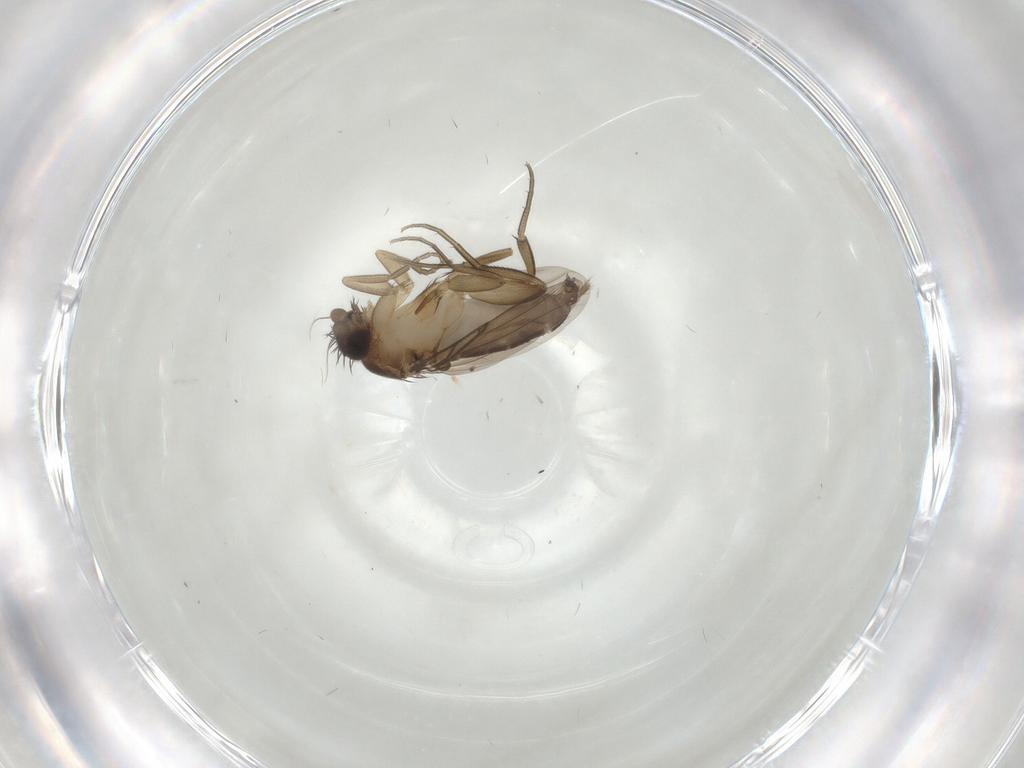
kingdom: Animalia
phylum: Arthropoda
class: Insecta
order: Diptera
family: Phoridae
